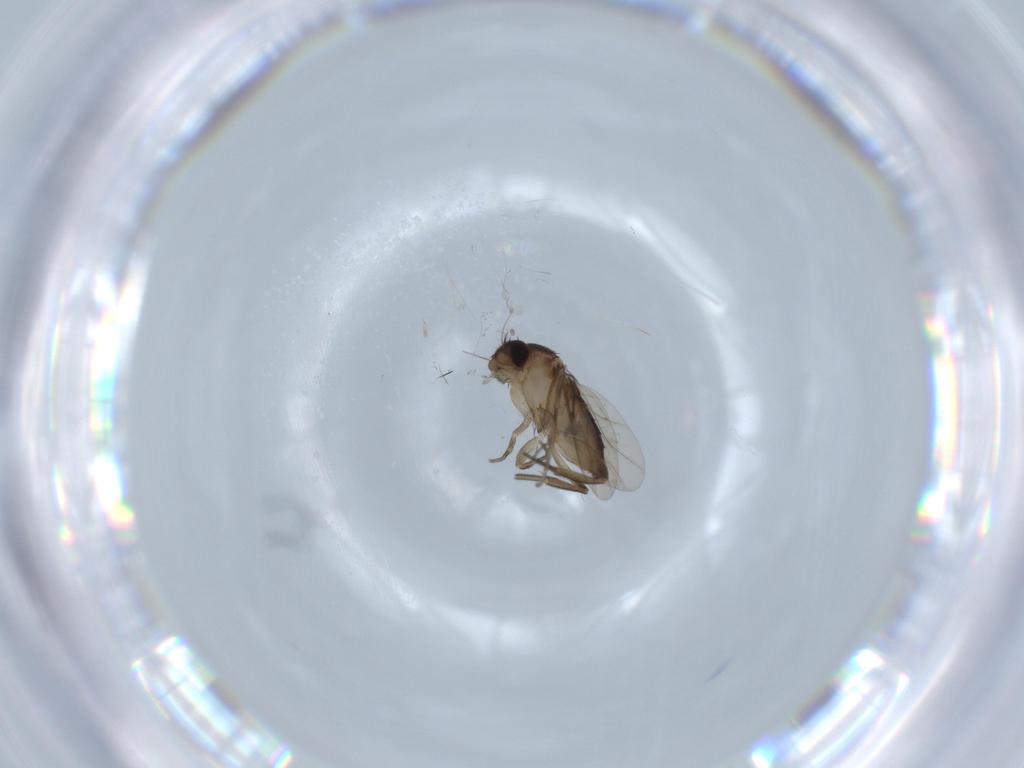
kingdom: Animalia
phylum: Arthropoda
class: Insecta
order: Diptera
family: Phoridae
